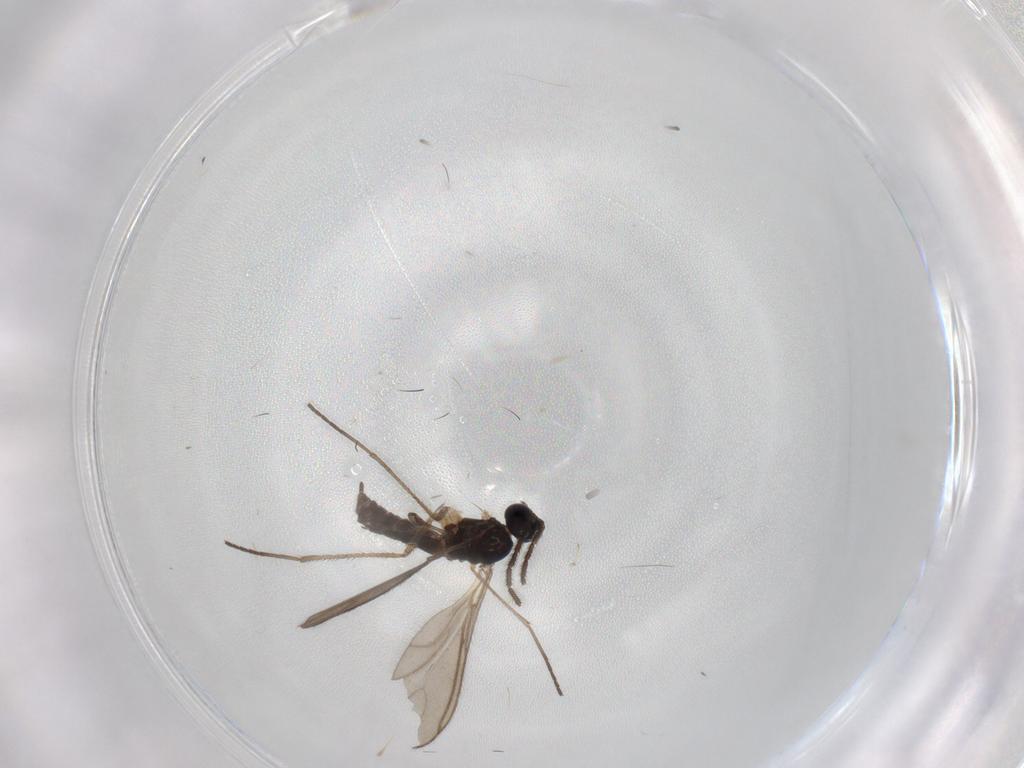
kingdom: Animalia
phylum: Arthropoda
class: Insecta
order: Diptera
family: Sciaridae
